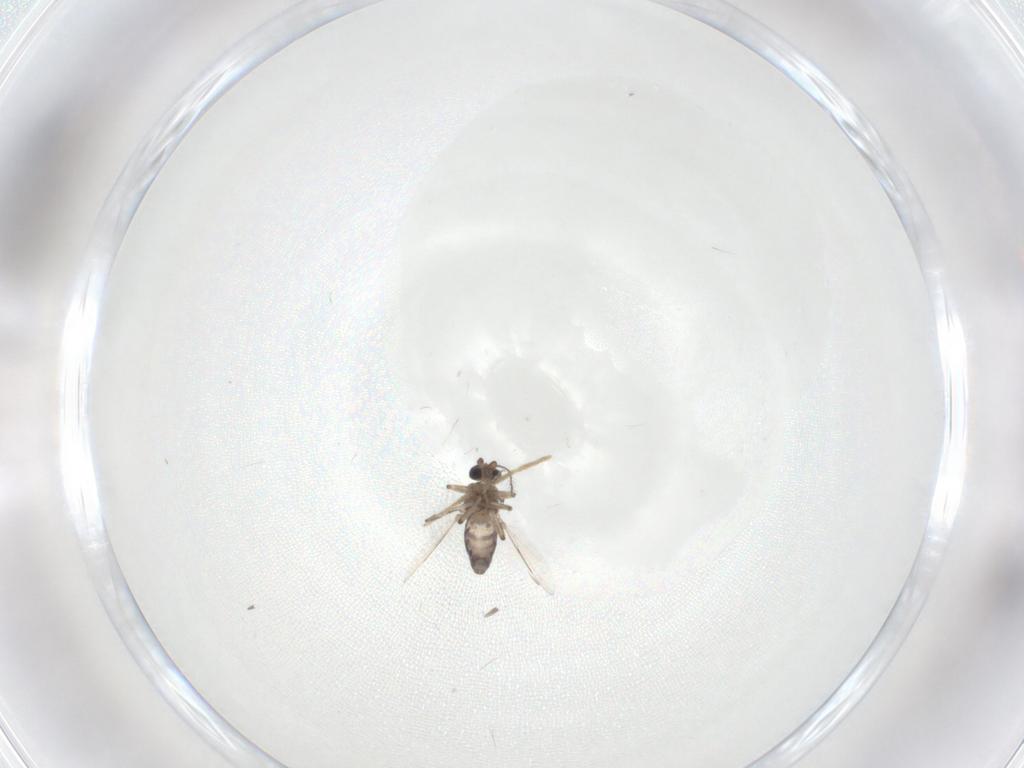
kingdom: Animalia
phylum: Arthropoda
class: Insecta
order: Diptera
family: Ceratopogonidae
